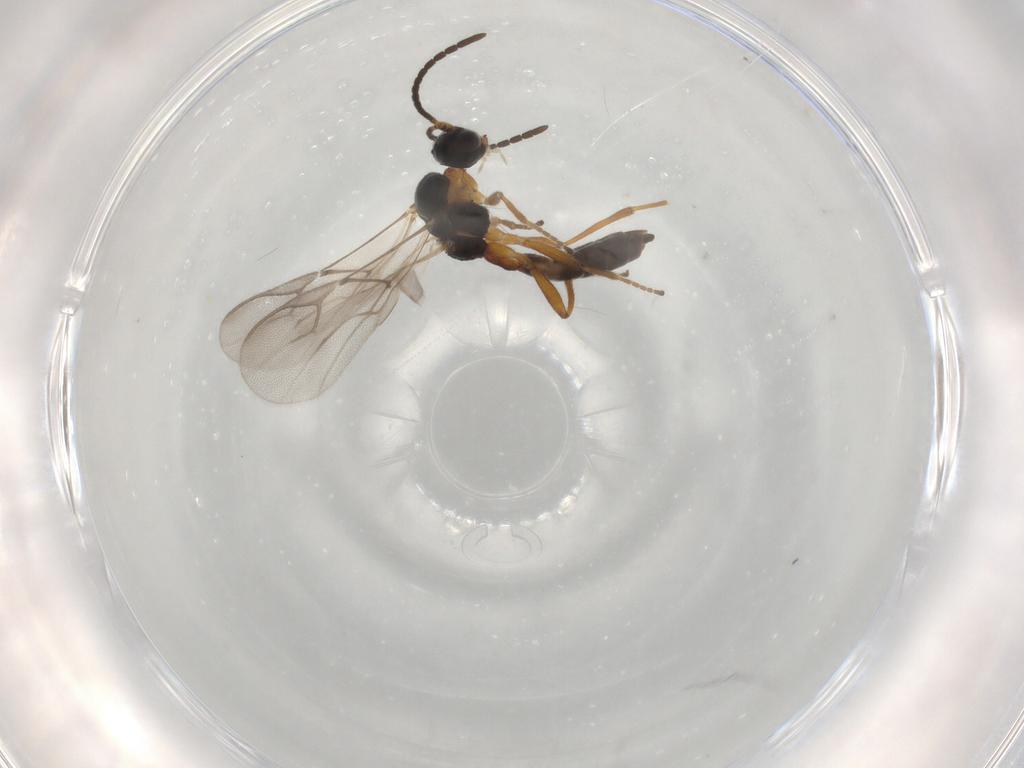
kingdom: Animalia
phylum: Arthropoda
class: Insecta
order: Hymenoptera
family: Braconidae
